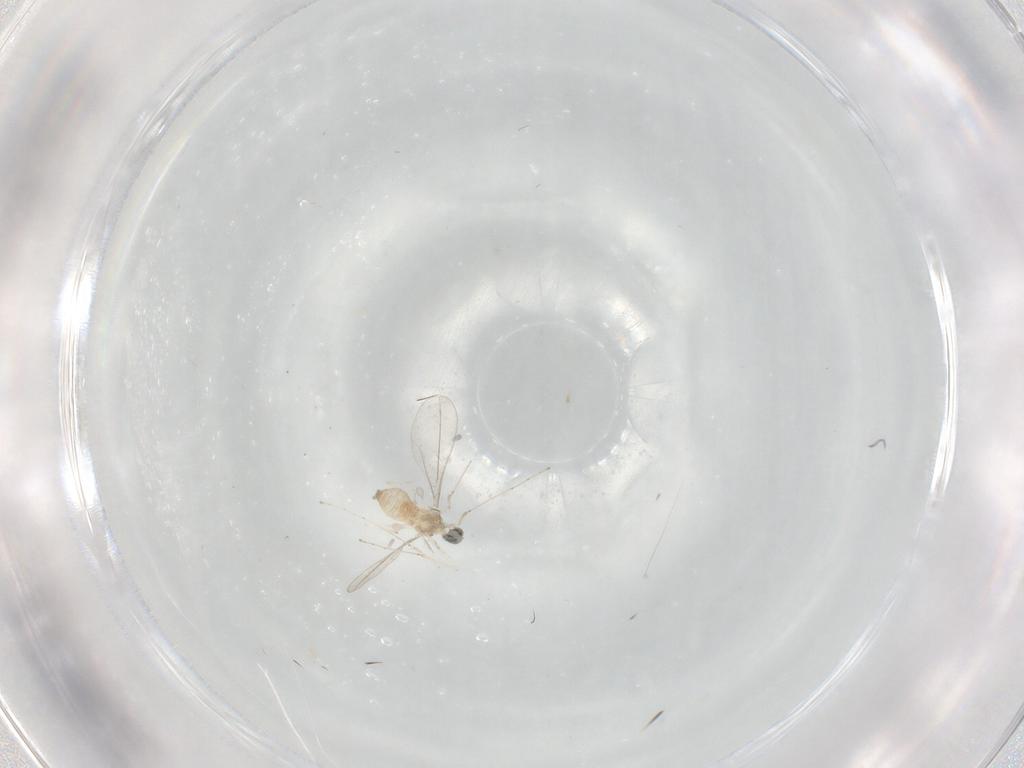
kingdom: Animalia
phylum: Arthropoda
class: Insecta
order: Diptera
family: Cecidomyiidae
